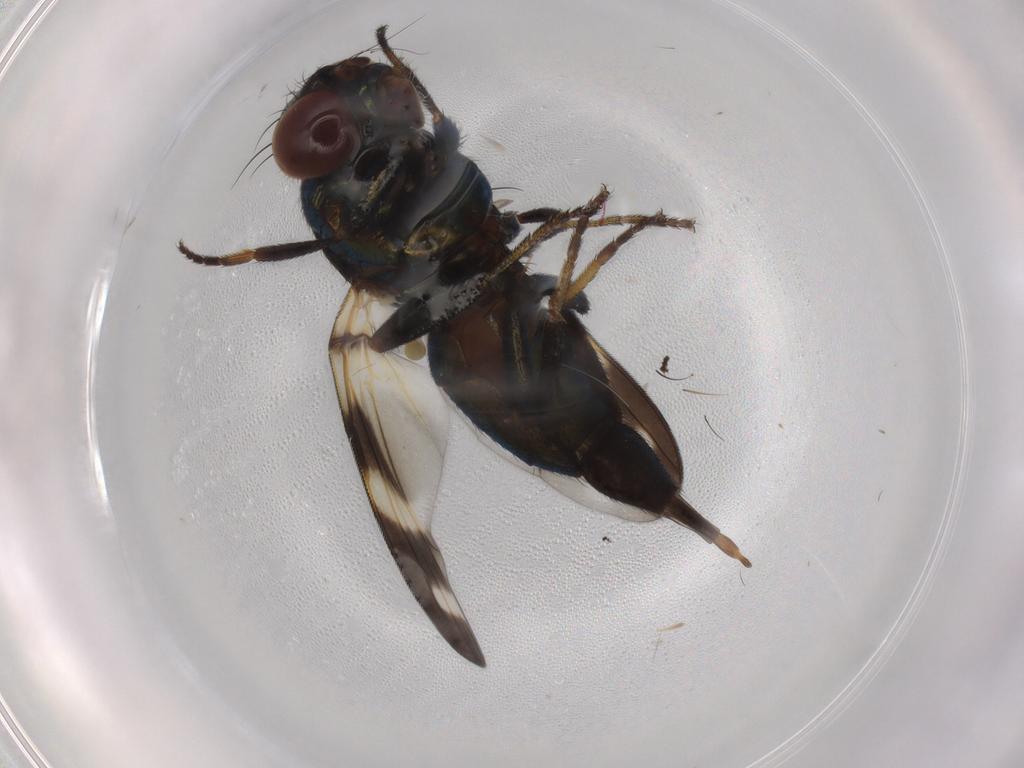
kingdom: Animalia
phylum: Arthropoda
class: Insecta
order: Diptera
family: Ulidiidae
